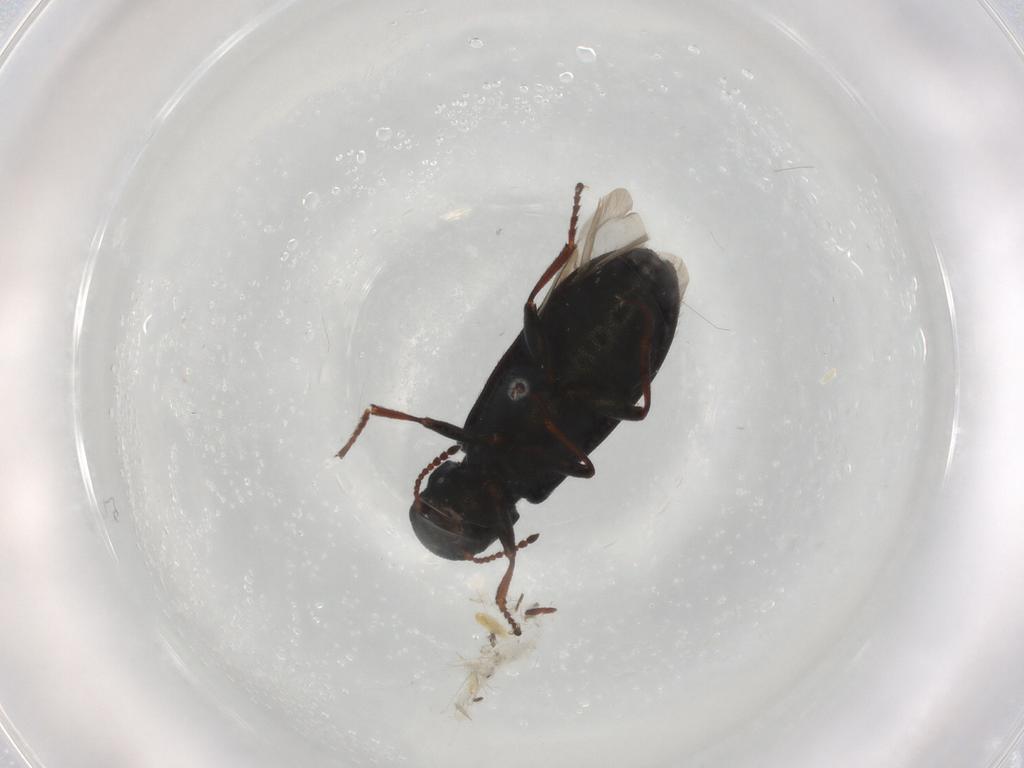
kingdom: Animalia
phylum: Arthropoda
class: Insecta
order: Coleoptera
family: Melyridae
